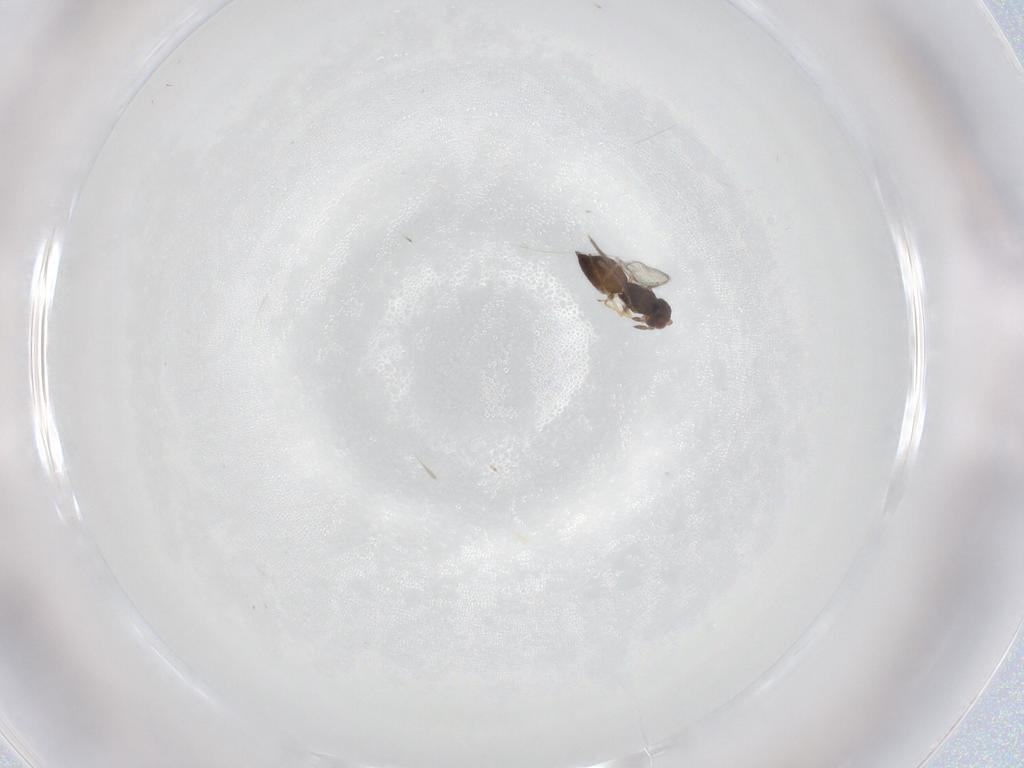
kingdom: Animalia
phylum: Arthropoda
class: Insecta
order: Hymenoptera
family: Eulophidae
